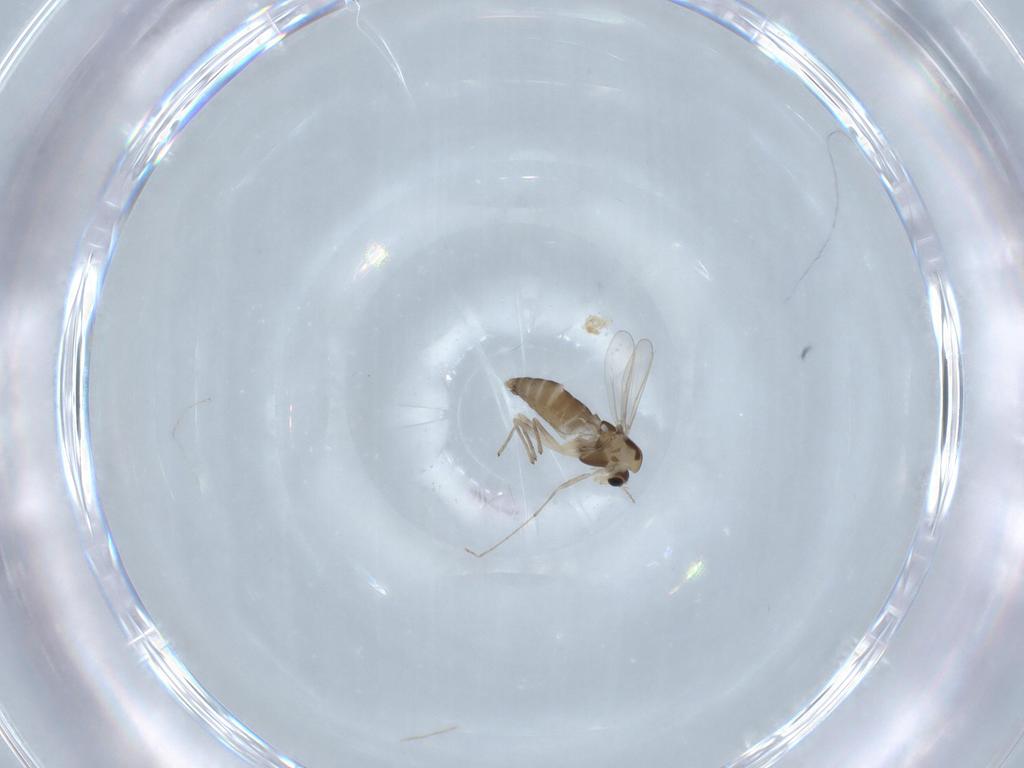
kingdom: Animalia
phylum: Arthropoda
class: Insecta
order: Diptera
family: Chironomidae
